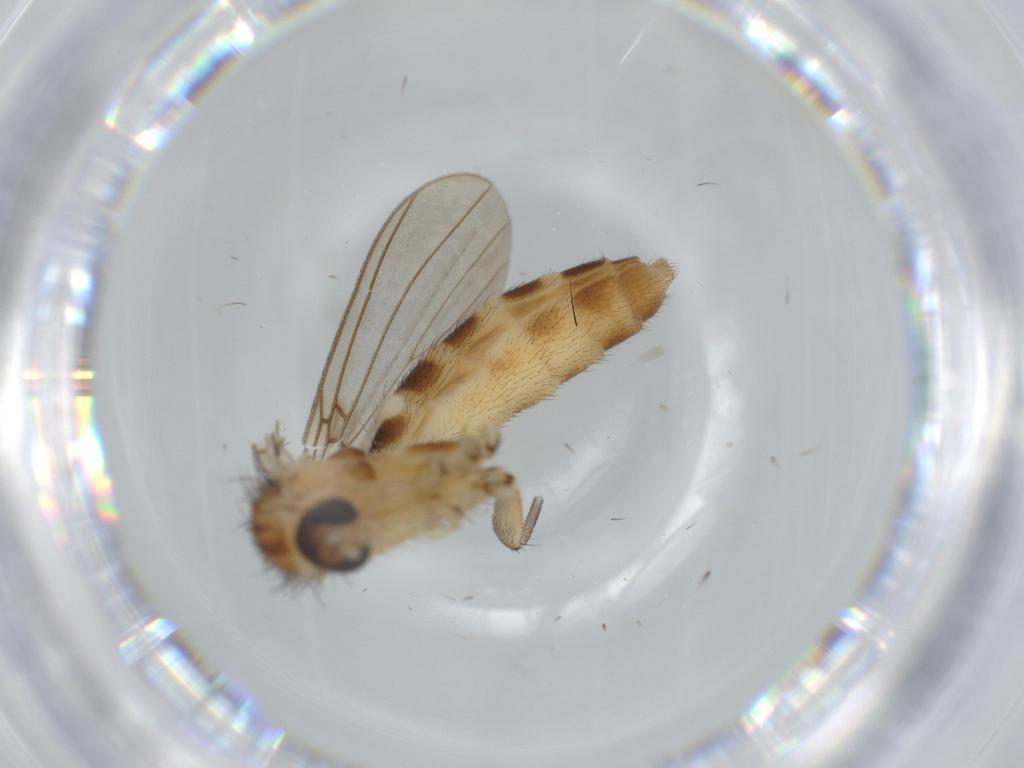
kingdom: Animalia
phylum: Arthropoda
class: Insecta
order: Diptera
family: Mycetophilidae
